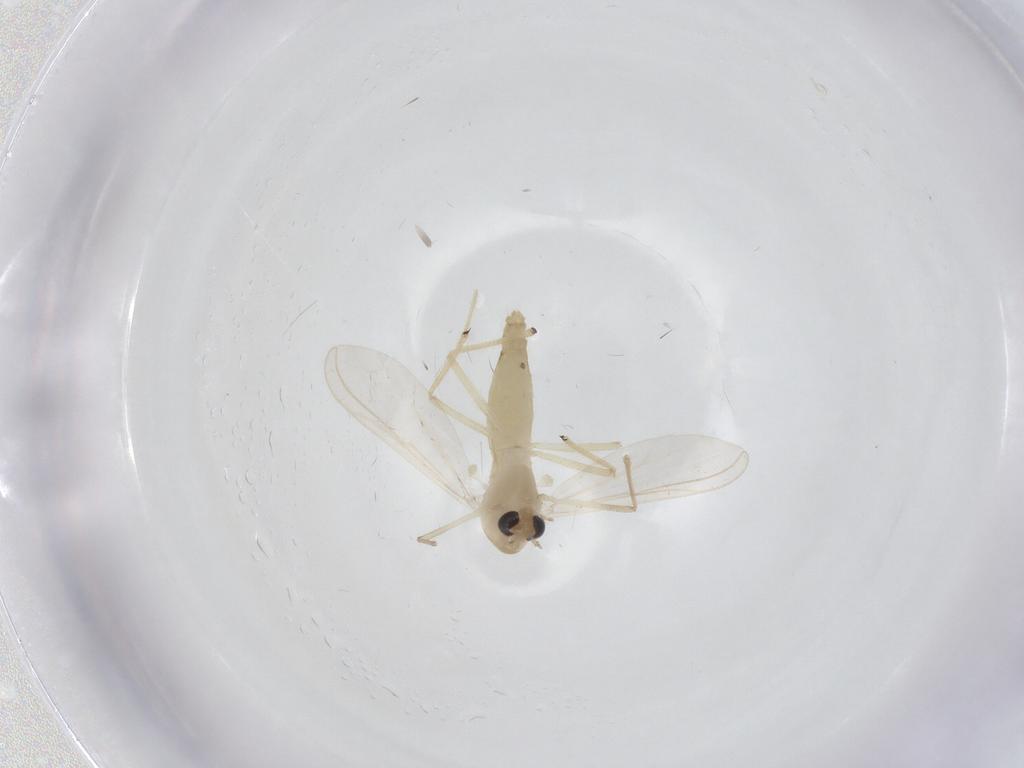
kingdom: Animalia
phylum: Arthropoda
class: Insecta
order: Diptera
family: Chironomidae
